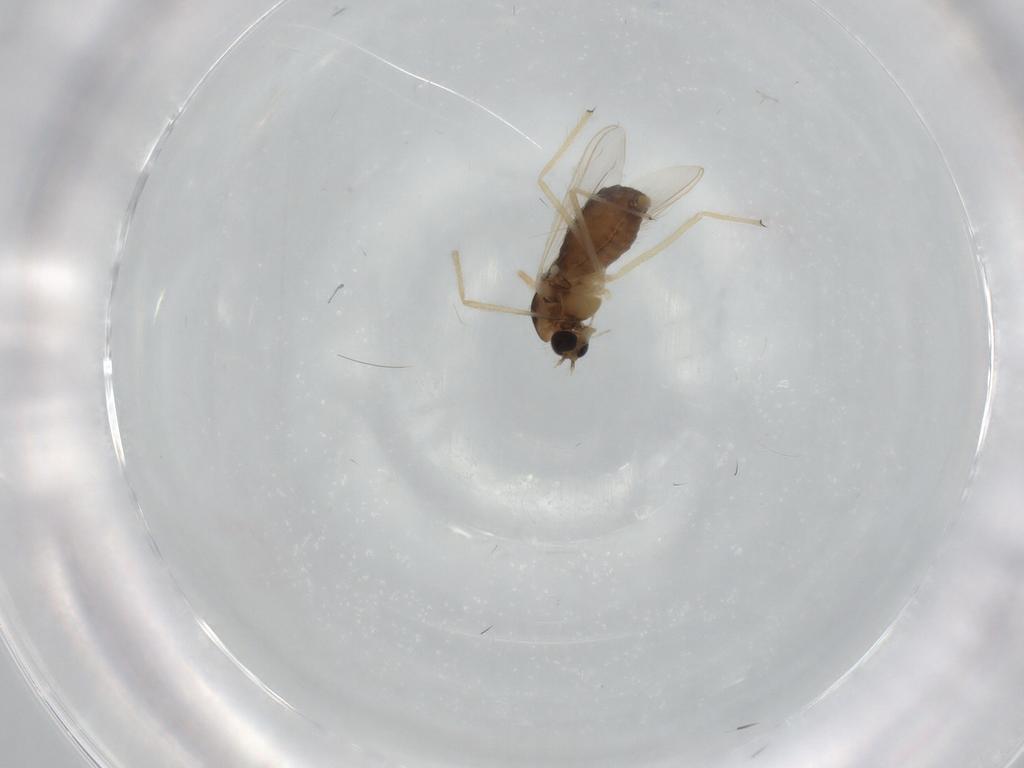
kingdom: Animalia
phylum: Arthropoda
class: Insecta
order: Diptera
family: Chironomidae
